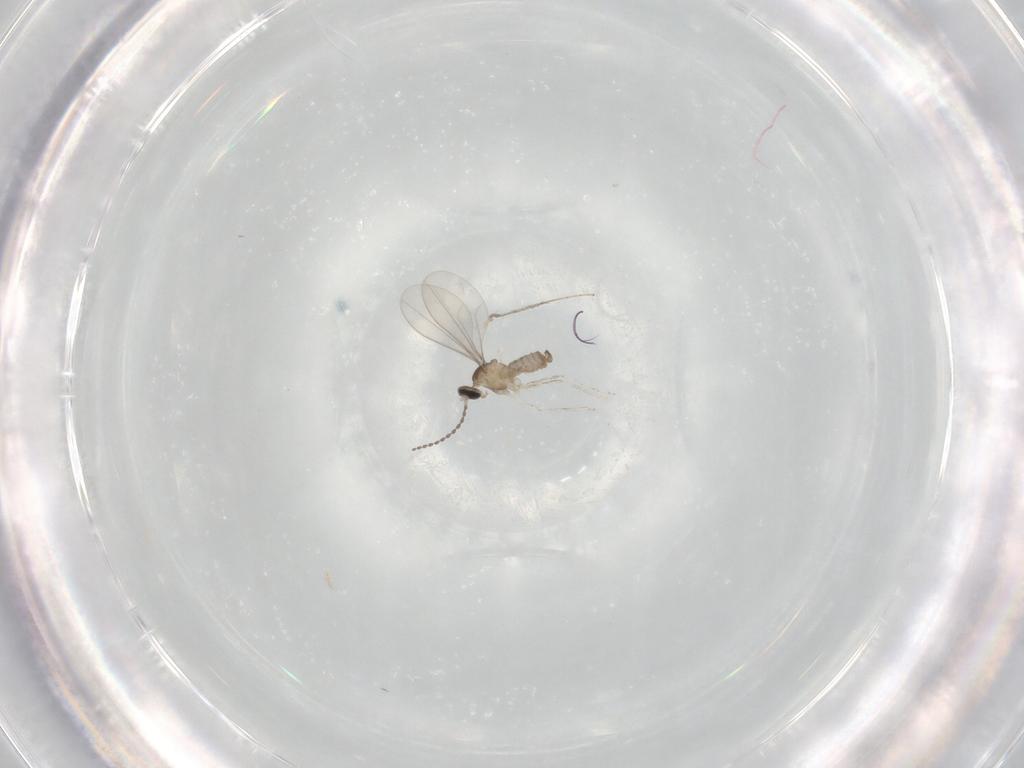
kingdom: Animalia
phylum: Arthropoda
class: Insecta
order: Diptera
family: Cecidomyiidae
